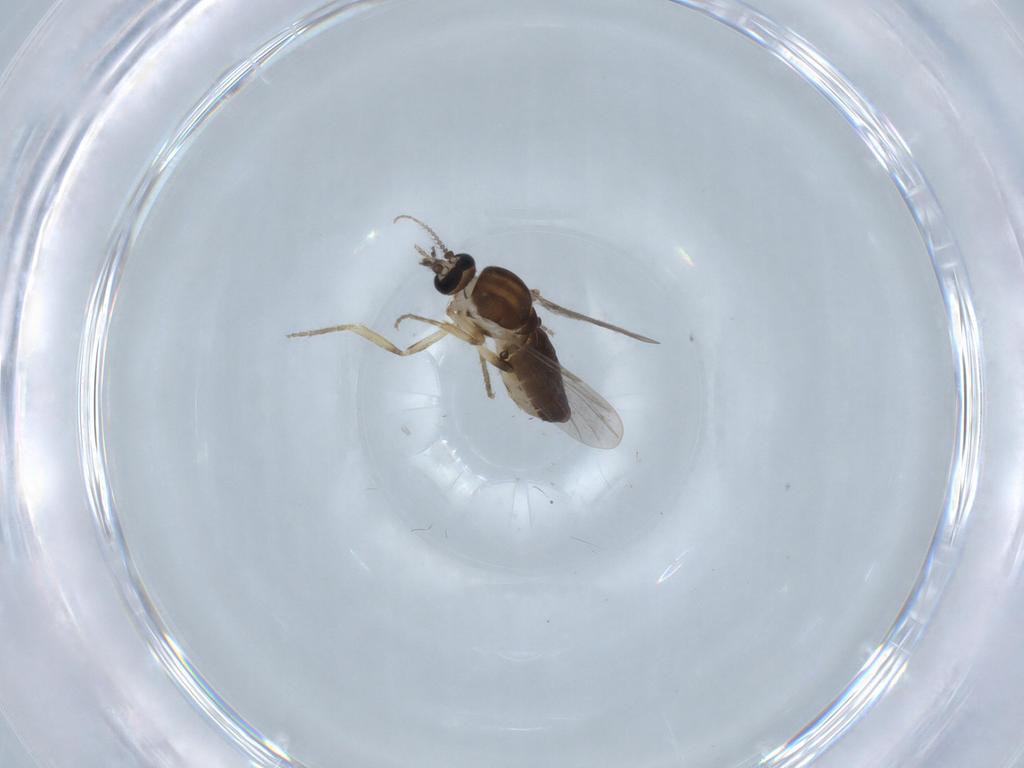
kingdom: Animalia
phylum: Arthropoda
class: Insecta
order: Diptera
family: Ceratopogonidae
